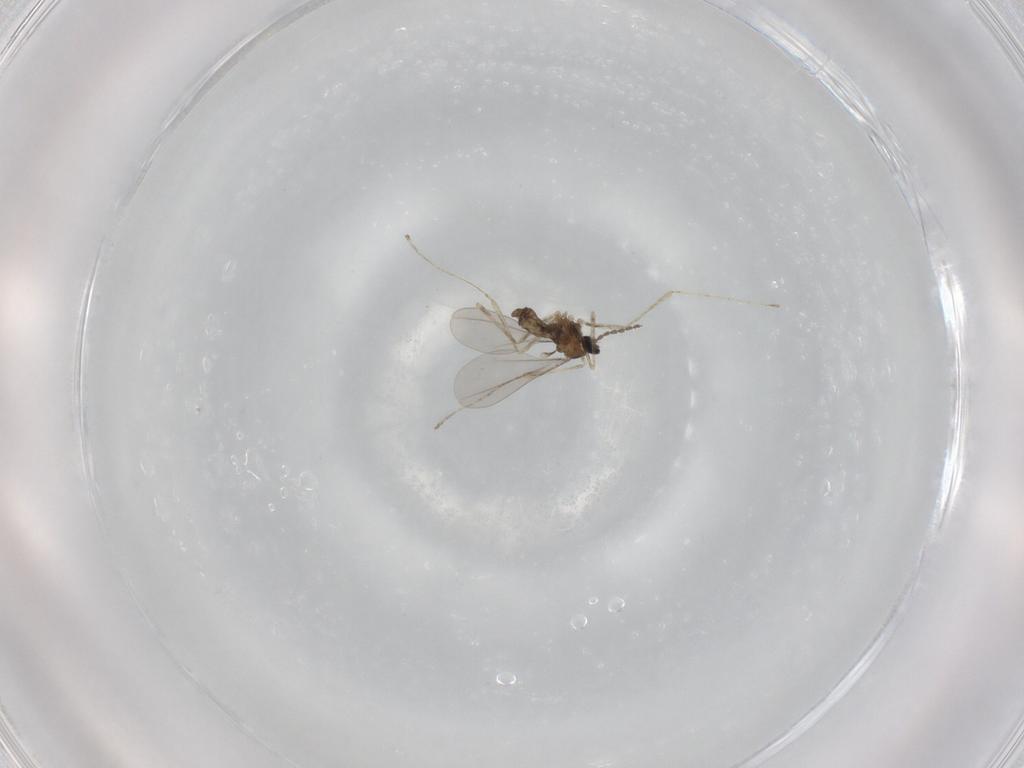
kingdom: Animalia
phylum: Arthropoda
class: Insecta
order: Diptera
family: Sciaridae
